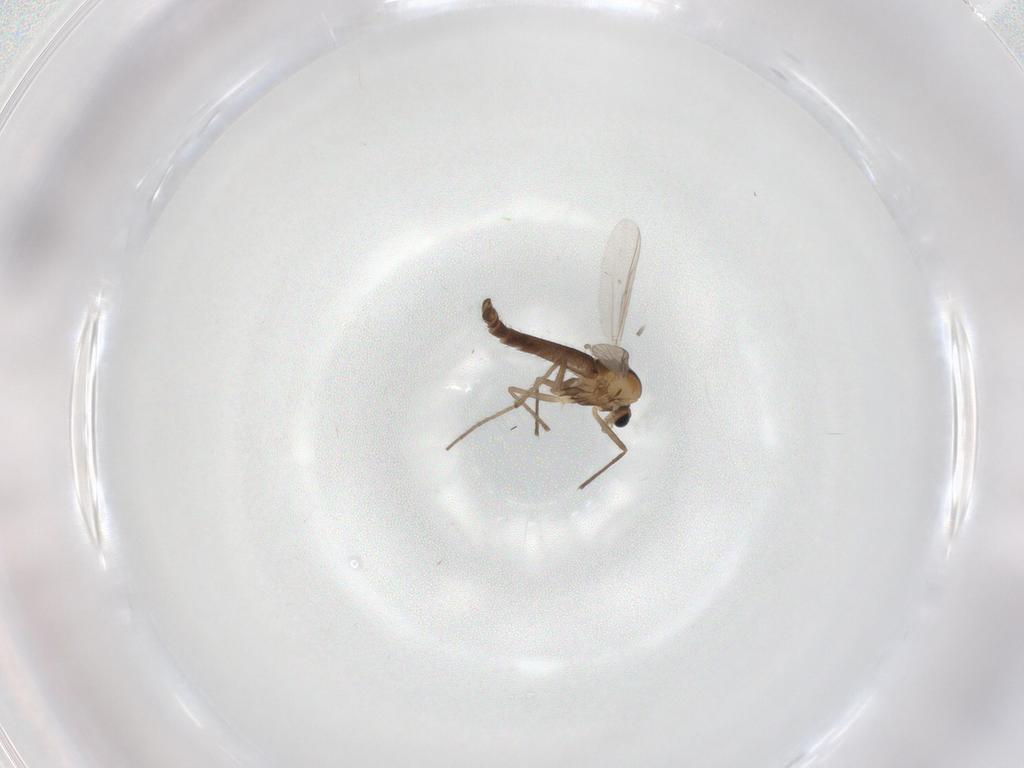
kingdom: Animalia
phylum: Arthropoda
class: Insecta
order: Diptera
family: Chironomidae
